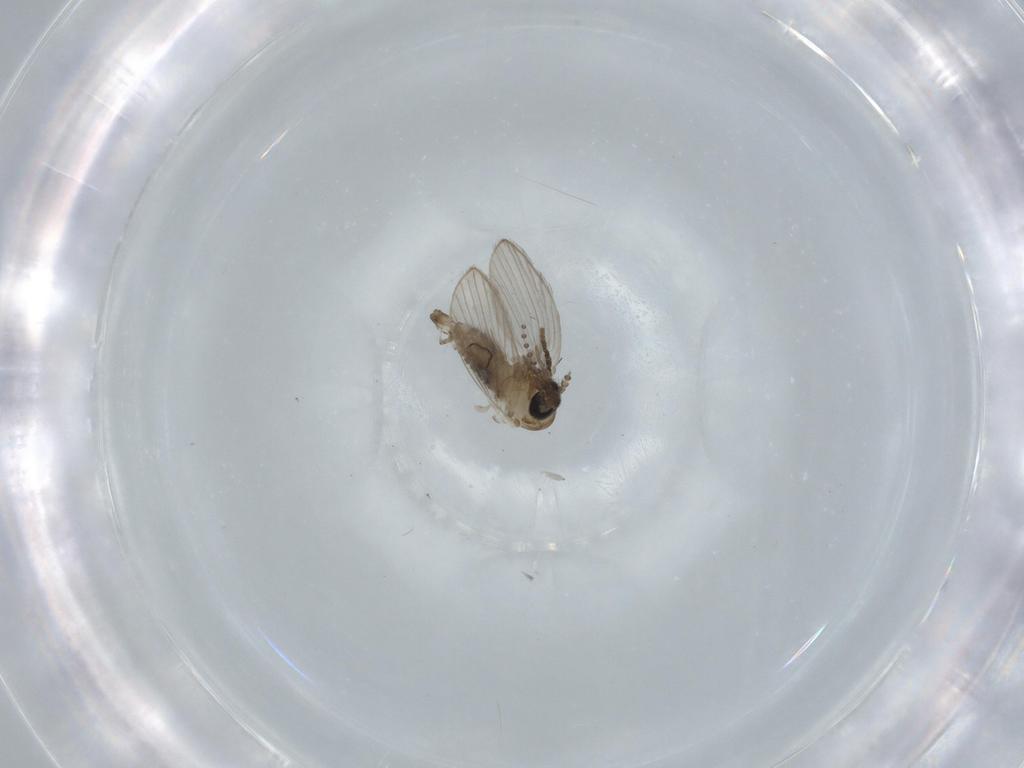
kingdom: Animalia
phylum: Arthropoda
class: Insecta
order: Diptera
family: Psychodidae
